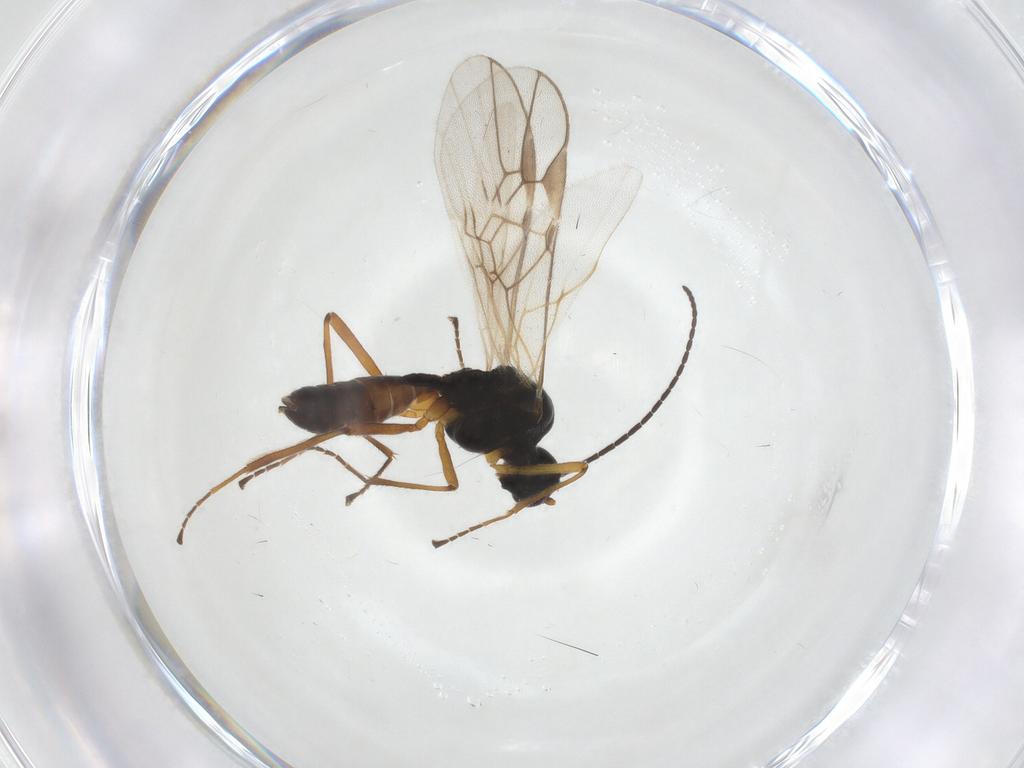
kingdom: Animalia
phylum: Arthropoda
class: Insecta
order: Hymenoptera
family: Braconidae
